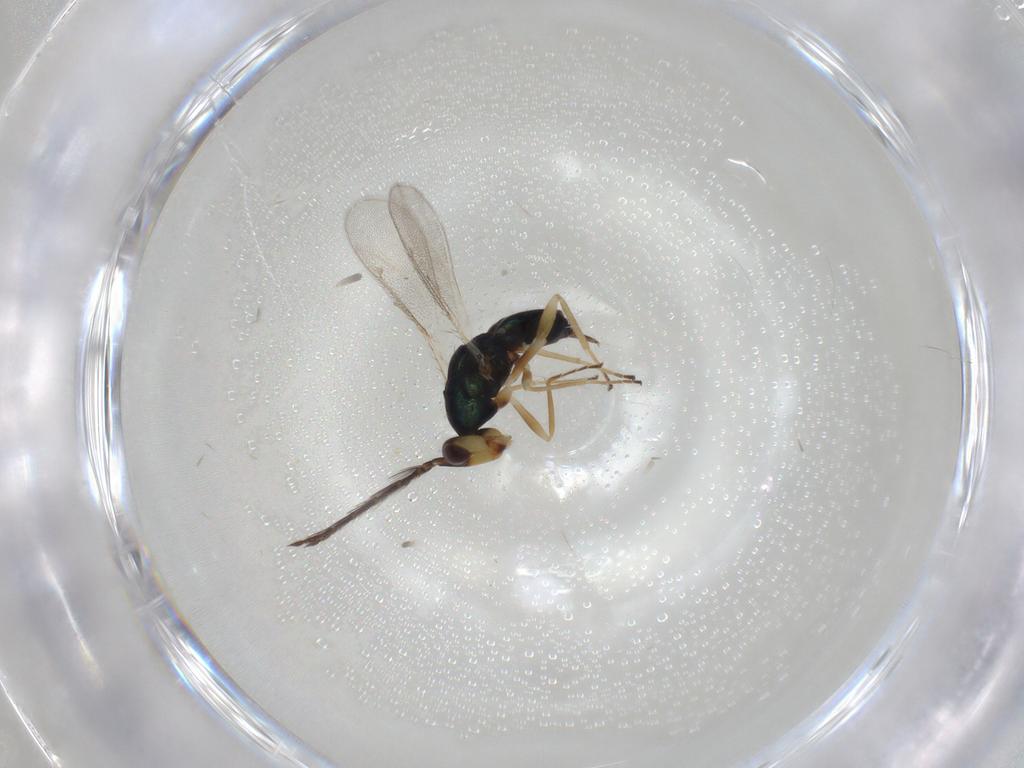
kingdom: Animalia
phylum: Arthropoda
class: Insecta
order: Hymenoptera
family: Eulophidae
